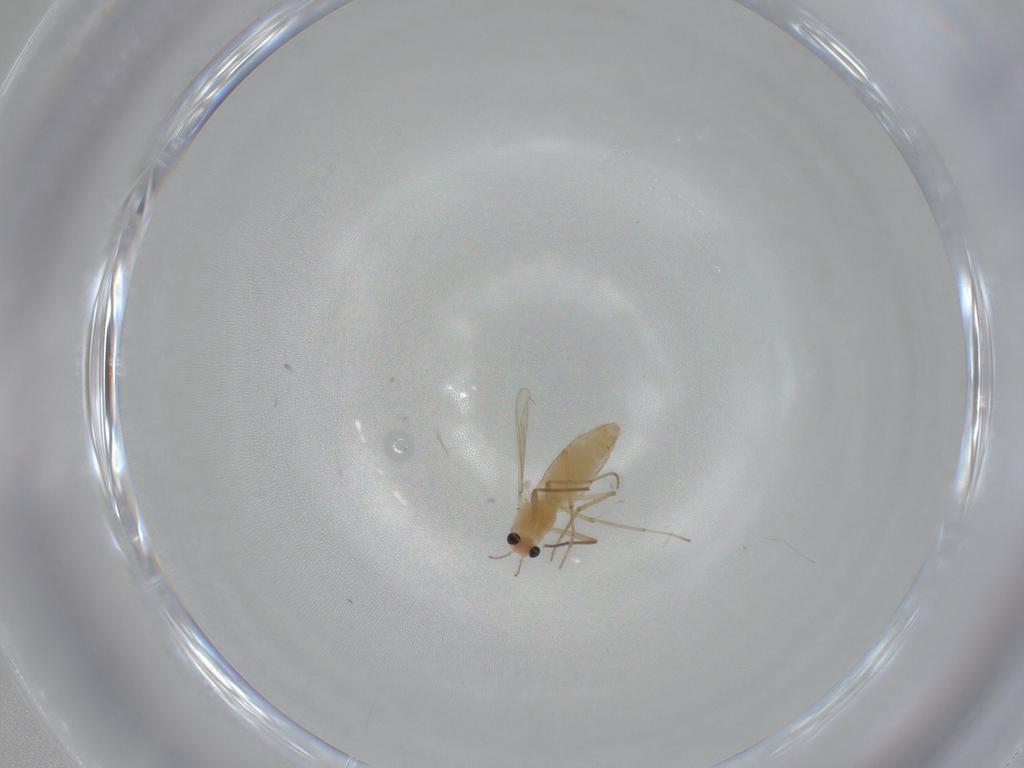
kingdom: Animalia
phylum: Arthropoda
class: Insecta
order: Diptera
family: Chironomidae
